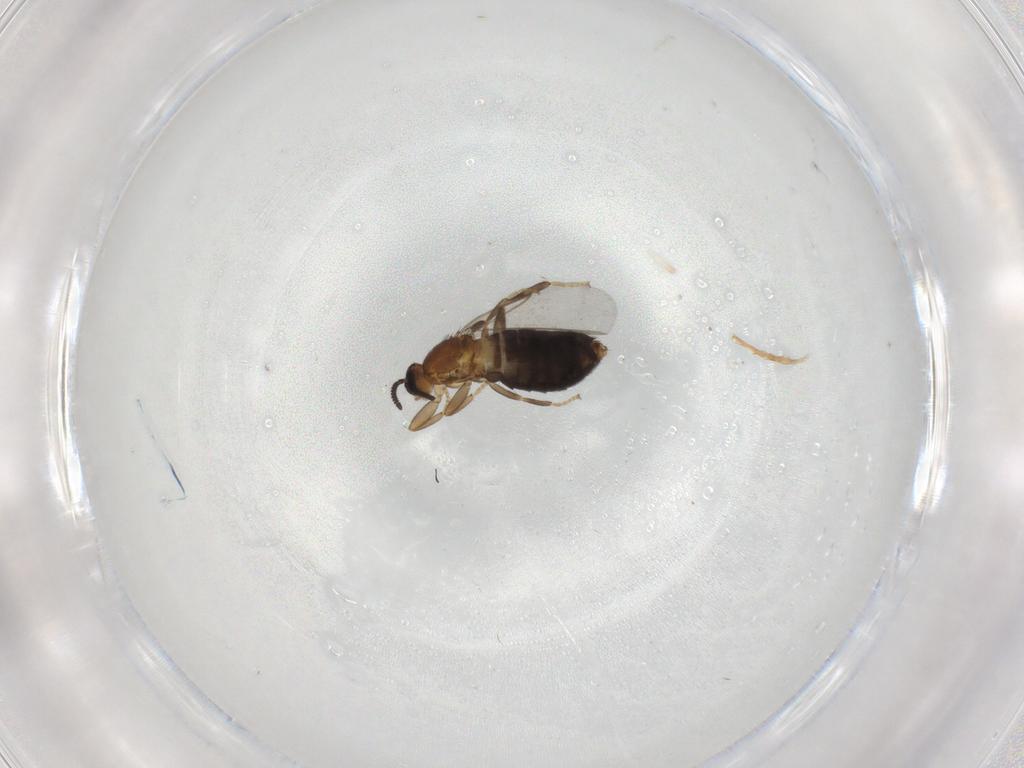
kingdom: Animalia
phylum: Arthropoda
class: Insecta
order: Diptera
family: Scatopsidae
